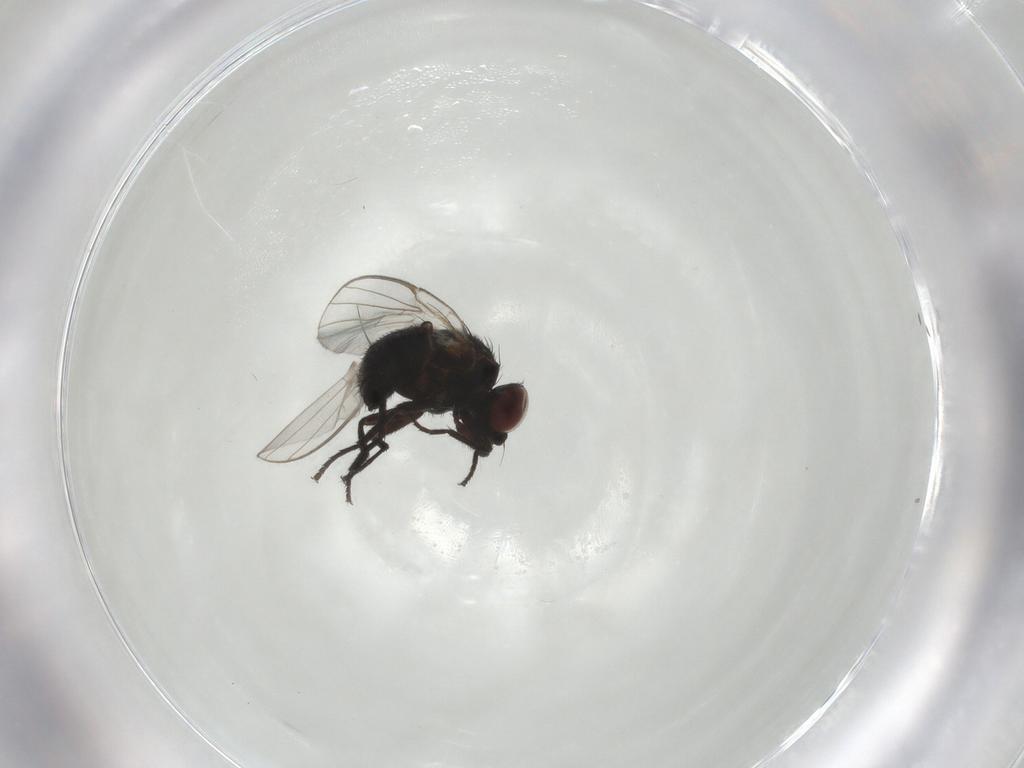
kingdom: Animalia
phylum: Arthropoda
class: Insecta
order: Diptera
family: Agromyzidae
